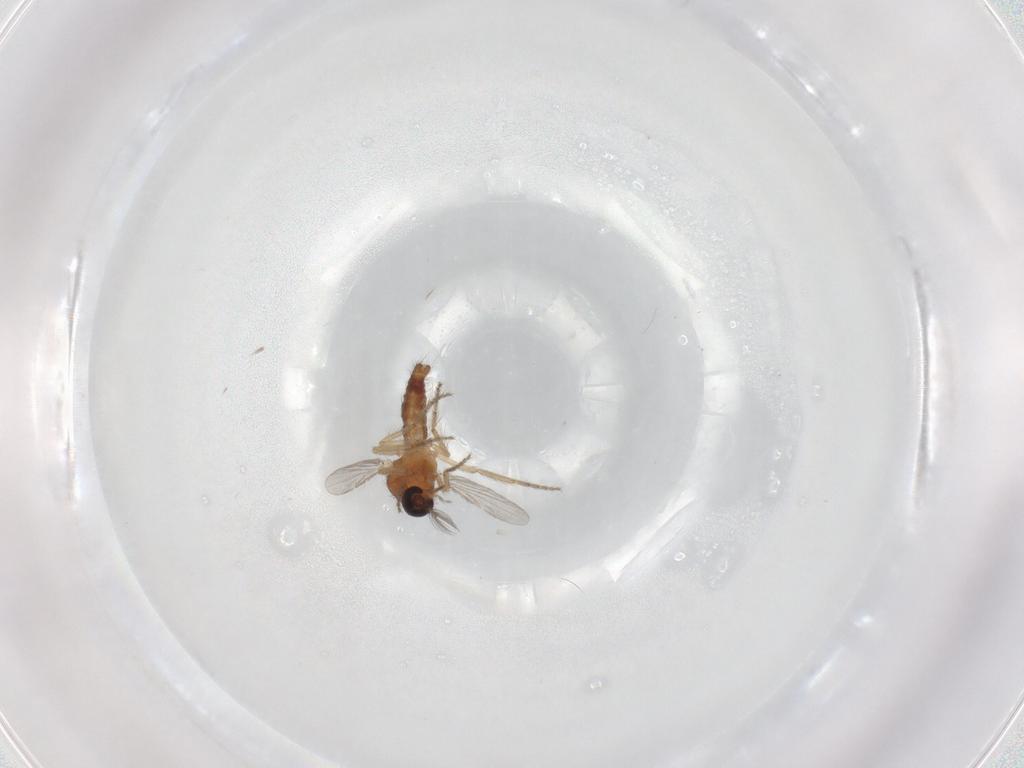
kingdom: Animalia
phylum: Arthropoda
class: Insecta
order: Diptera
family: Ceratopogonidae
